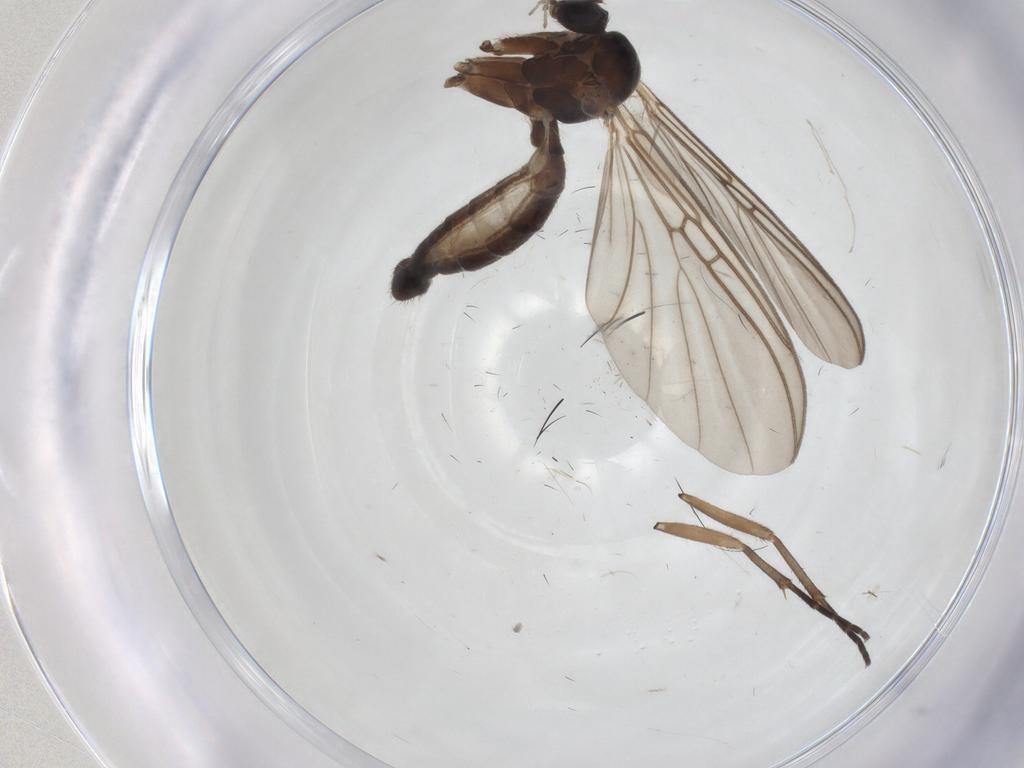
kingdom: Animalia
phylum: Arthropoda
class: Insecta
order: Diptera
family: Mycetophilidae
